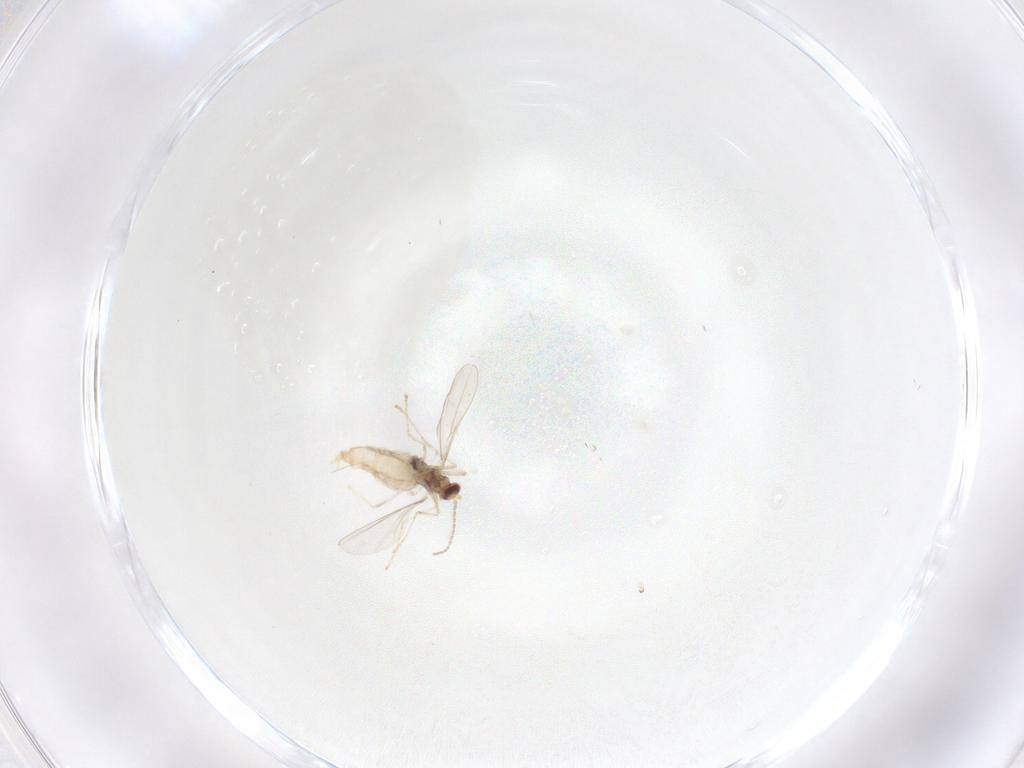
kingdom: Animalia
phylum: Arthropoda
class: Insecta
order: Diptera
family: Cecidomyiidae
